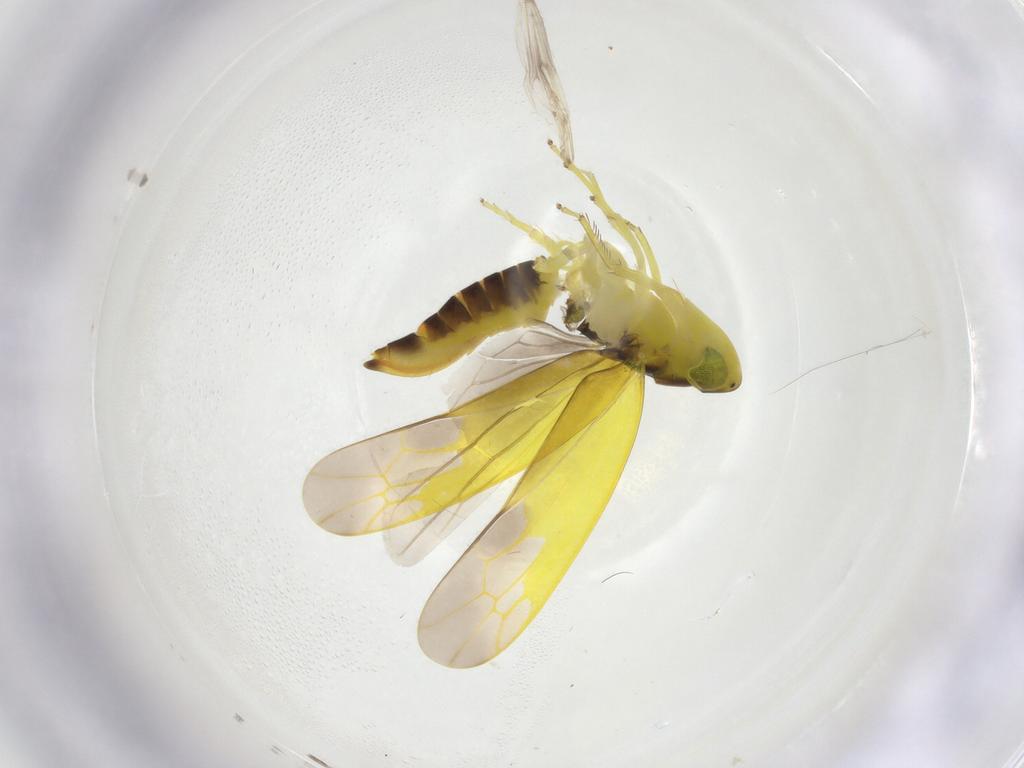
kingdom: Animalia
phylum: Arthropoda
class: Insecta
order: Hemiptera
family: Cicadellidae
